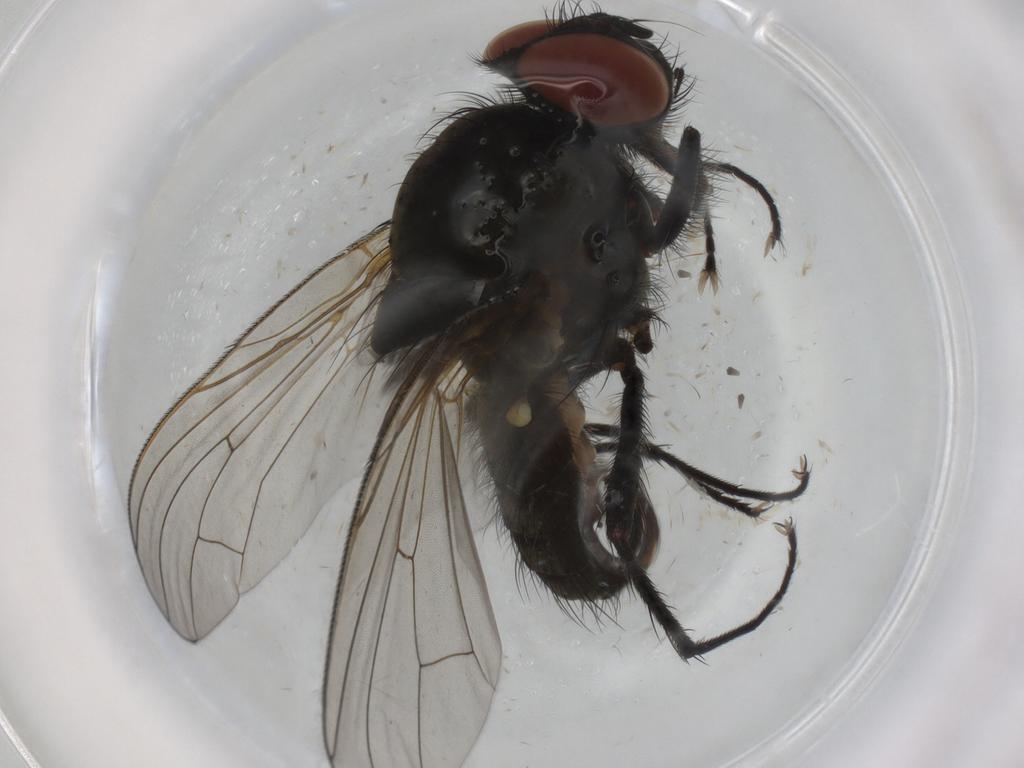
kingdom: Animalia
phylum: Arthropoda
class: Insecta
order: Diptera
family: Anthomyiidae
